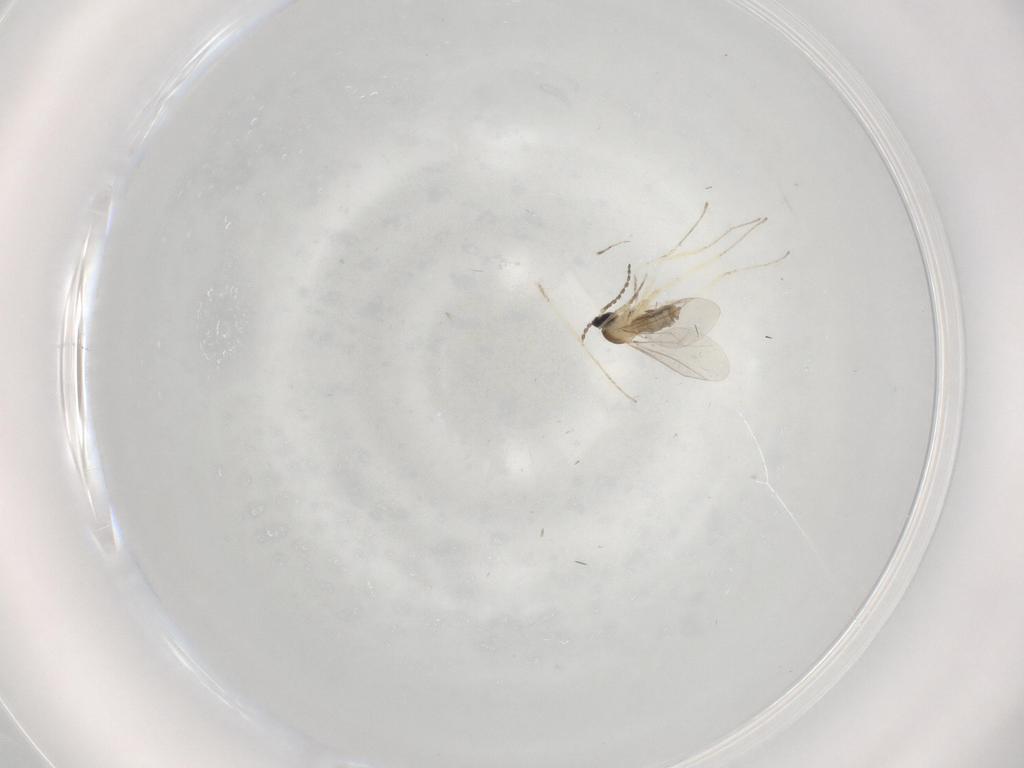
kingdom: Animalia
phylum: Arthropoda
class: Insecta
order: Diptera
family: Cecidomyiidae
